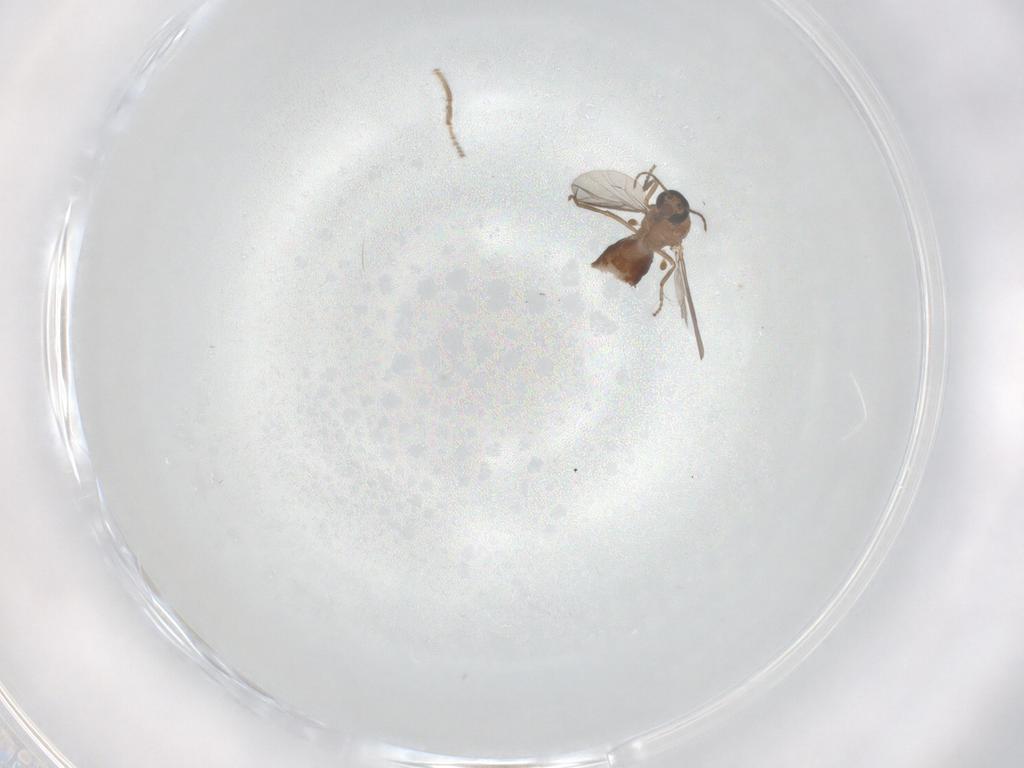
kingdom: Animalia
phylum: Arthropoda
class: Insecta
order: Diptera
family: Ceratopogonidae
